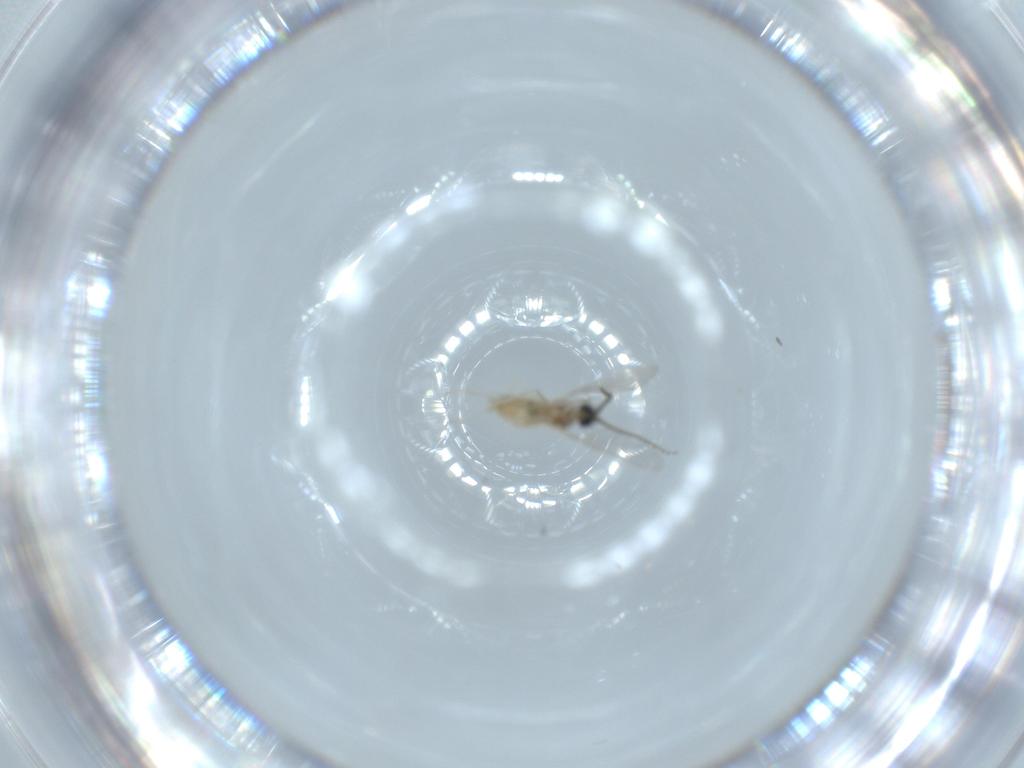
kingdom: Animalia
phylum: Arthropoda
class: Insecta
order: Diptera
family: Cecidomyiidae
